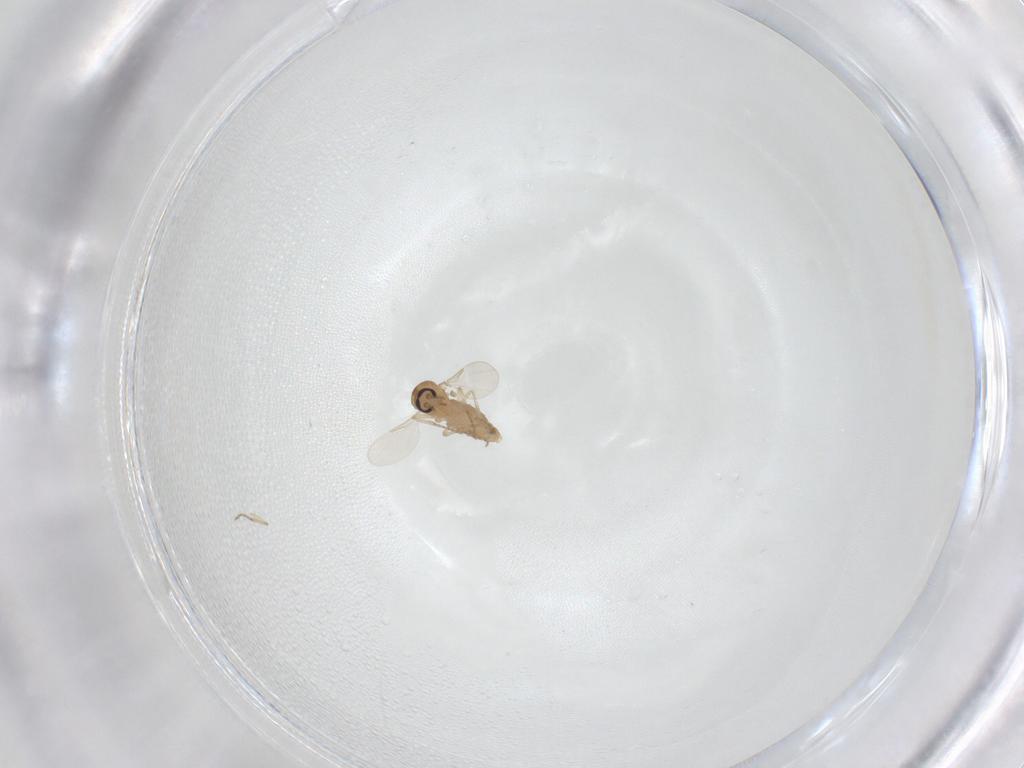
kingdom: Animalia
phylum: Arthropoda
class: Insecta
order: Diptera
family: Ceratopogonidae
